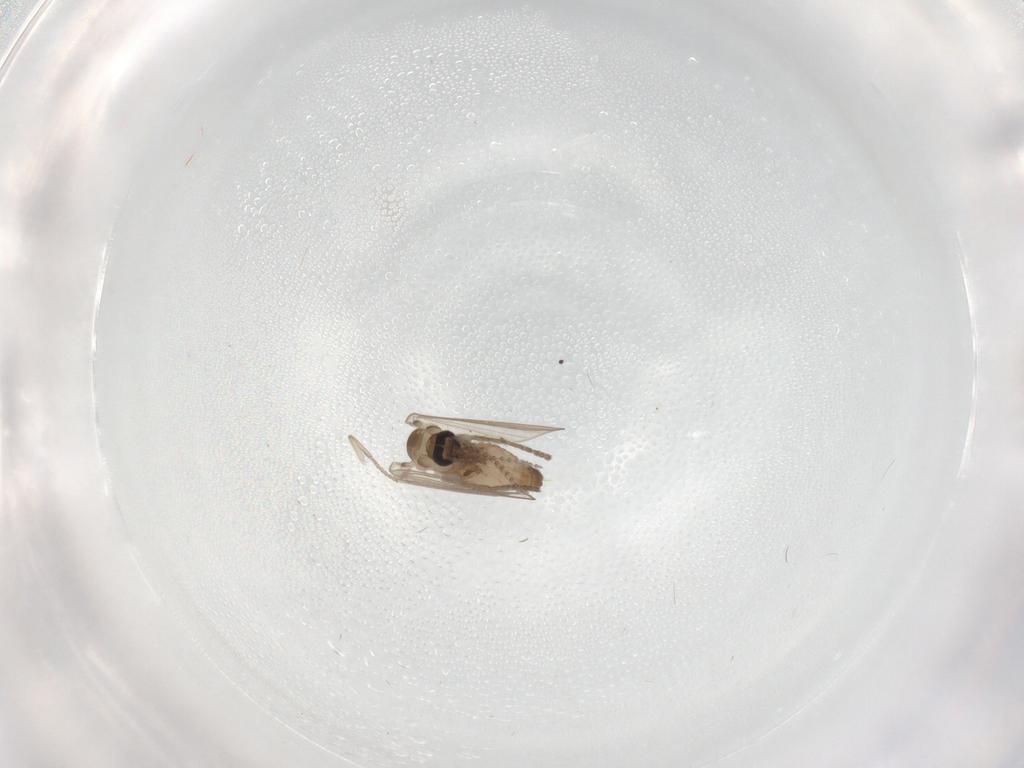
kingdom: Animalia
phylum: Arthropoda
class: Insecta
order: Diptera
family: Psychodidae
